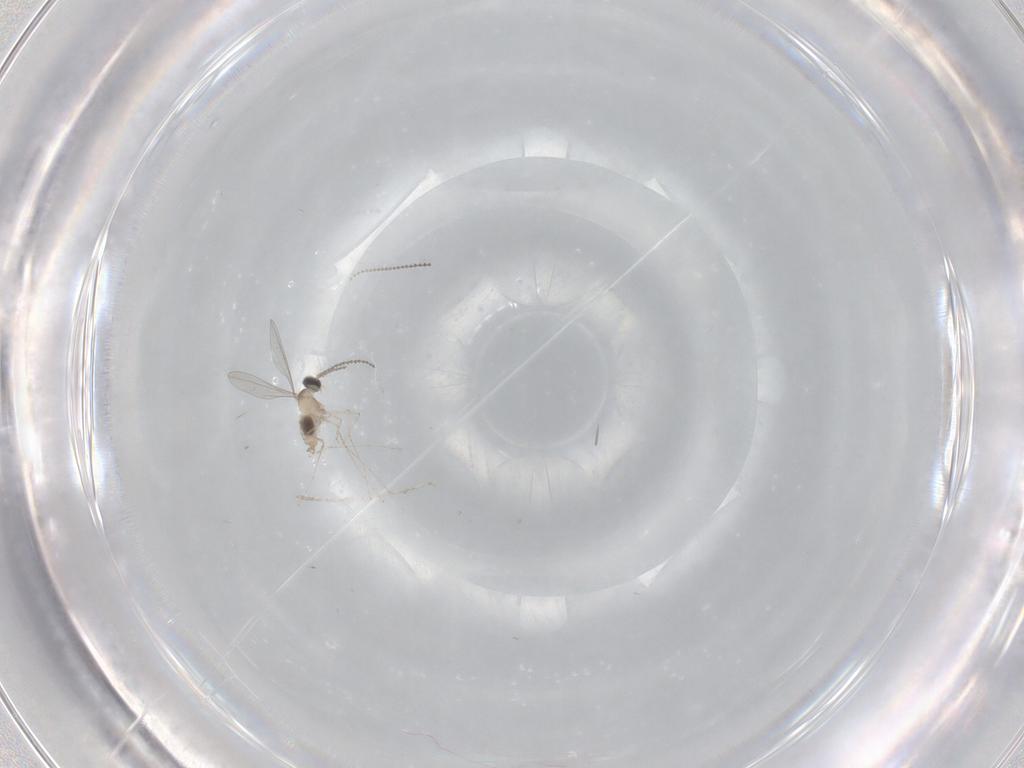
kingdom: Animalia
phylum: Arthropoda
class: Insecta
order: Diptera
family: Cecidomyiidae
